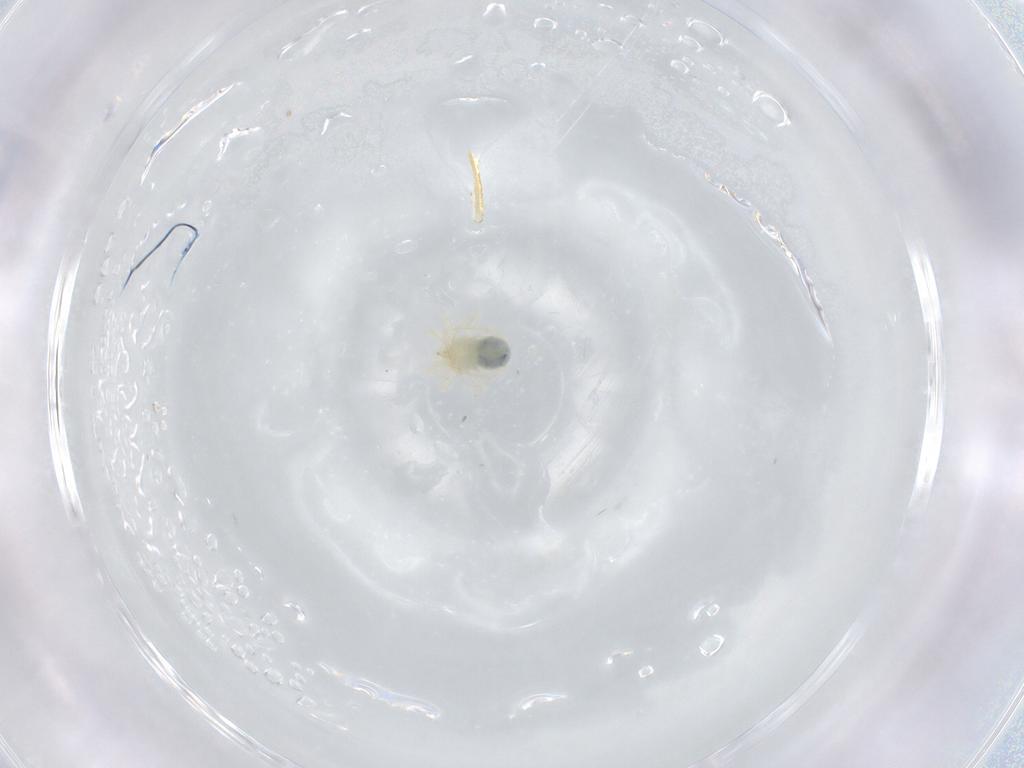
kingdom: Animalia
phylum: Arthropoda
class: Arachnida
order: Trombidiformes
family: Eupodidae
